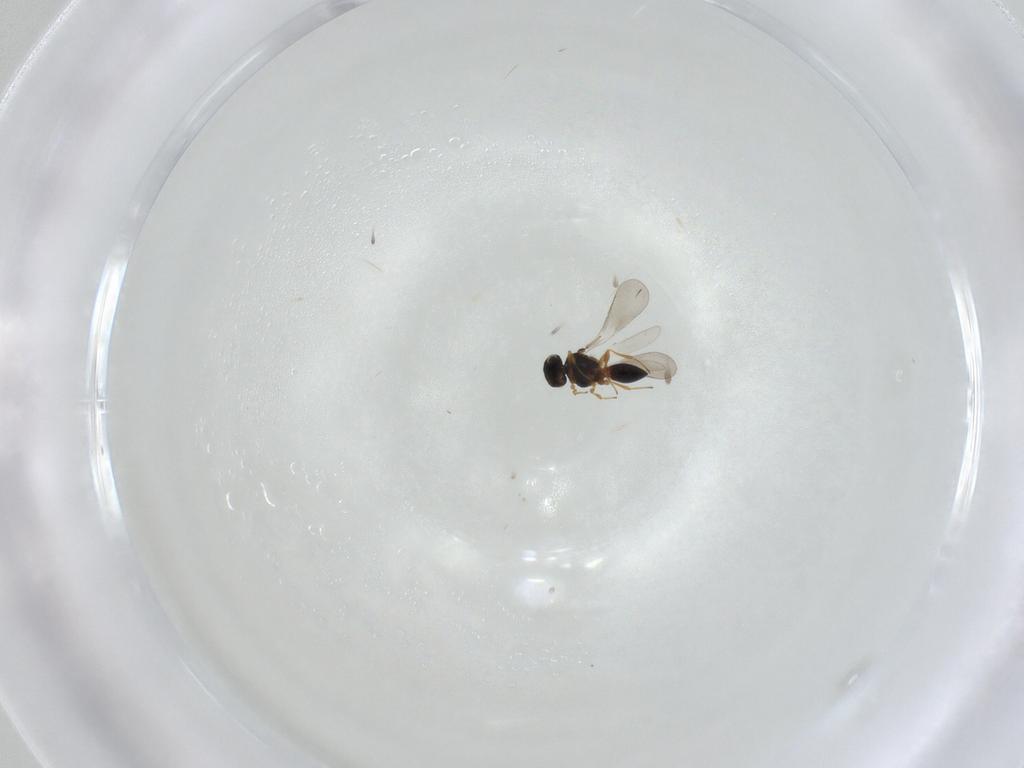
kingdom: Animalia
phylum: Arthropoda
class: Insecta
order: Hymenoptera
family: Platygastridae
